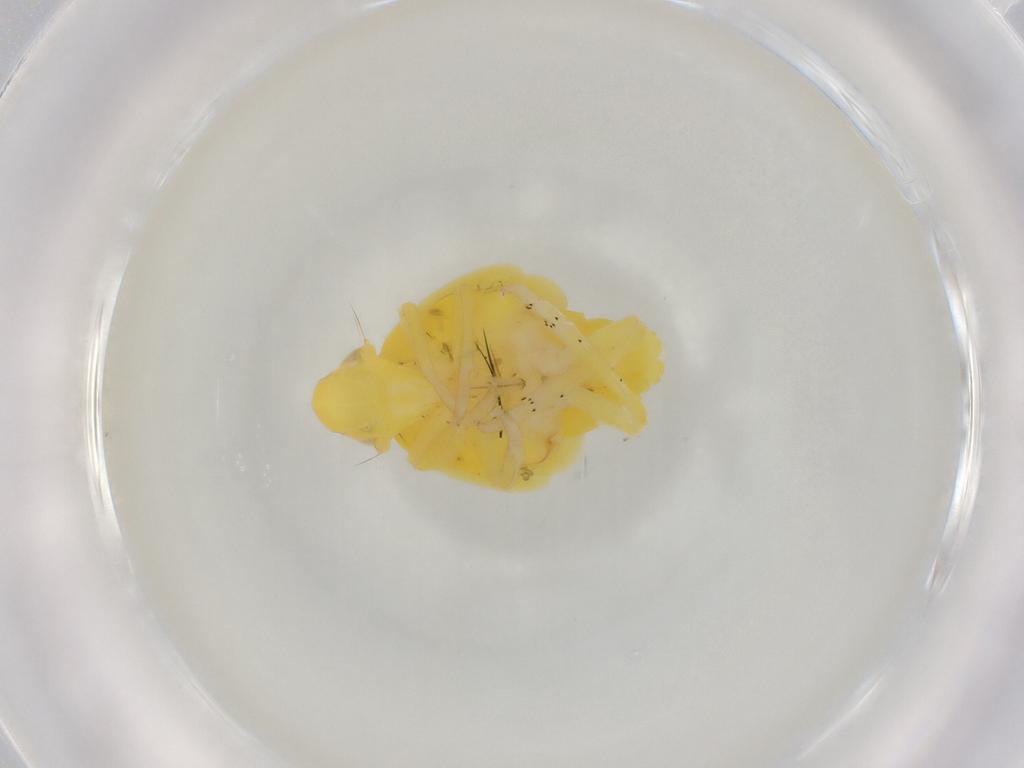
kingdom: Animalia
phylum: Arthropoda
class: Insecta
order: Hemiptera
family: Tropiduchidae
